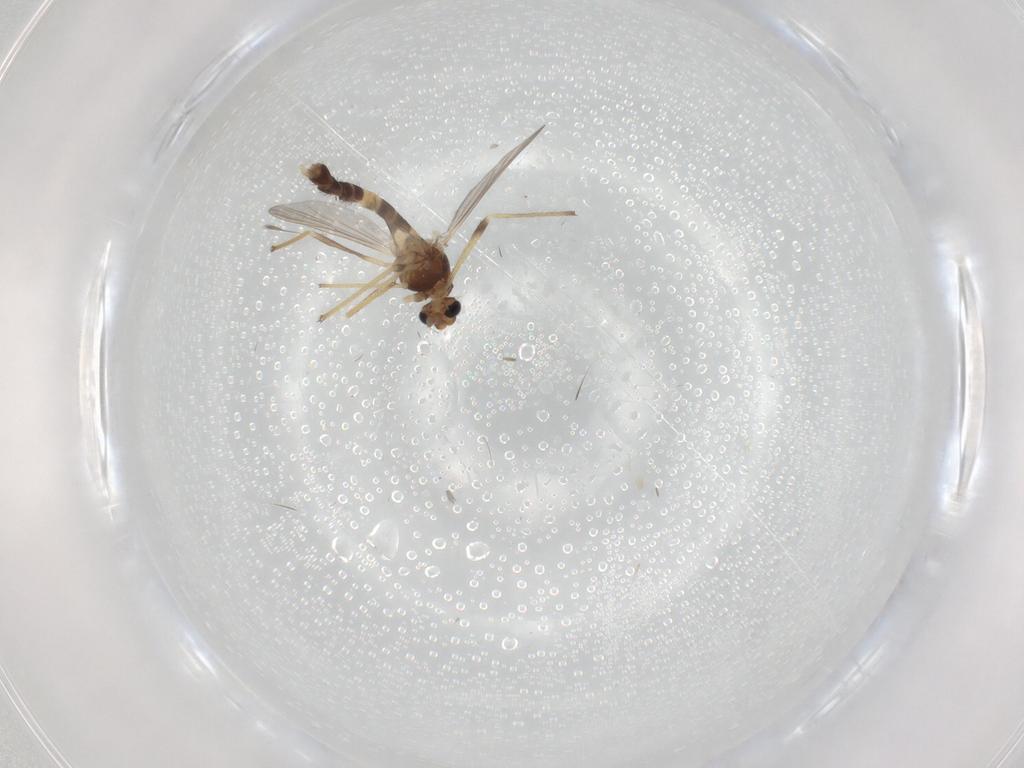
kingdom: Animalia
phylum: Arthropoda
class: Insecta
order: Diptera
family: Chironomidae
